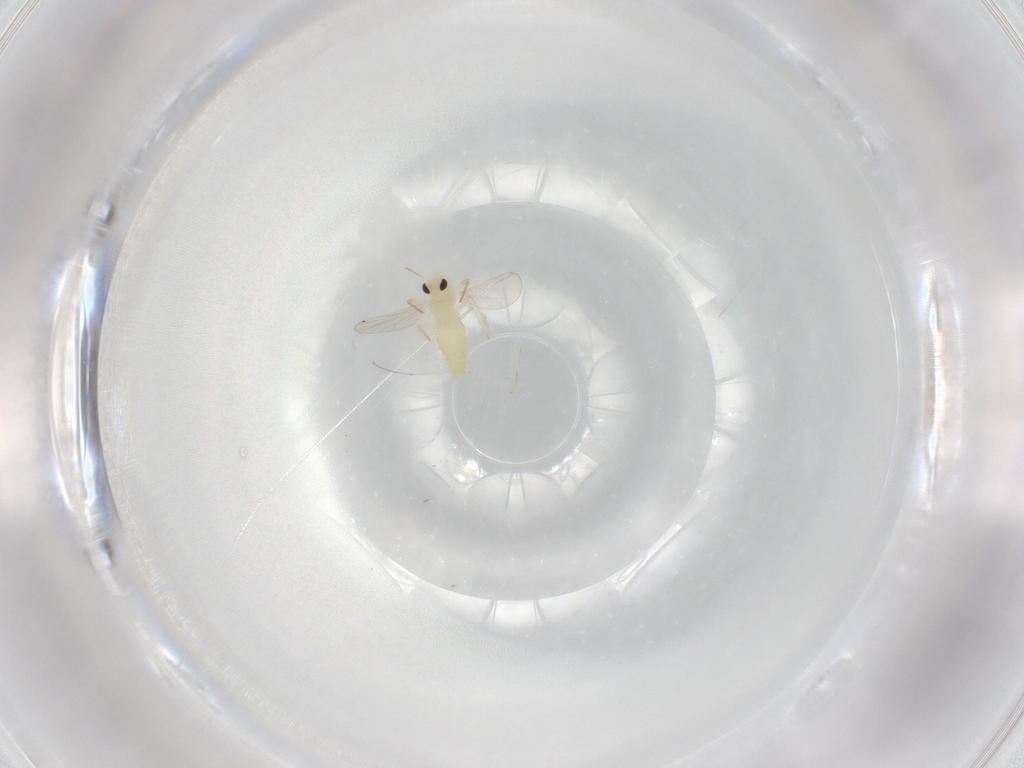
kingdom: Animalia
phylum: Arthropoda
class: Insecta
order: Diptera
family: Chironomidae
